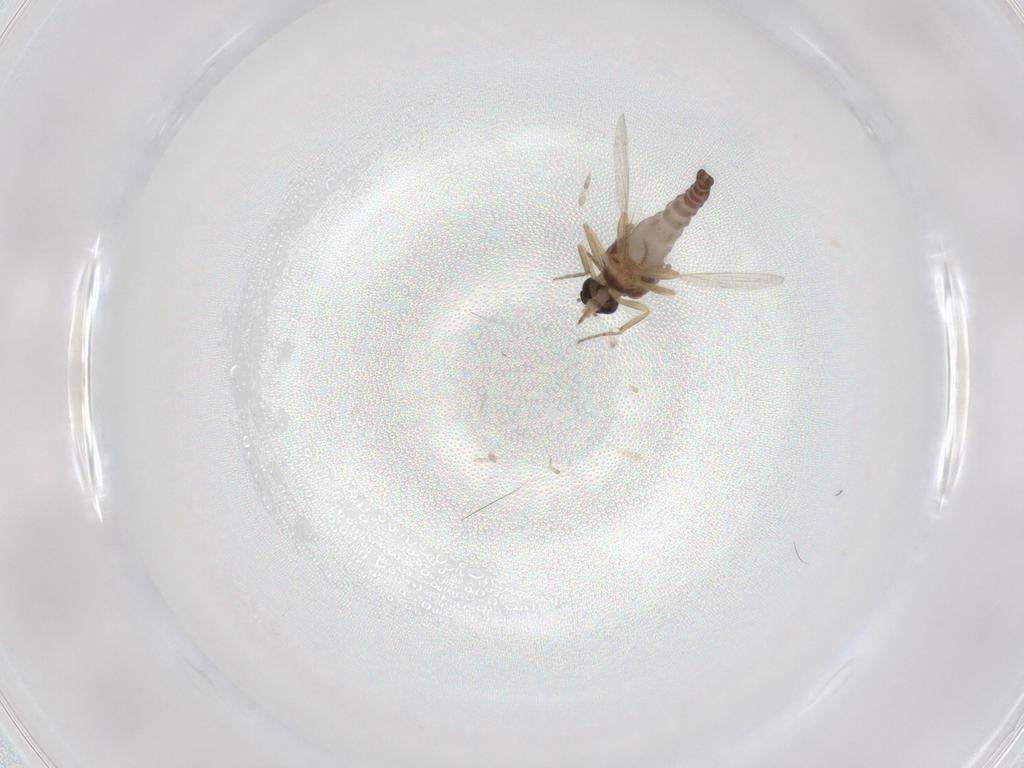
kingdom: Animalia
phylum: Arthropoda
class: Insecta
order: Diptera
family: Ceratopogonidae
